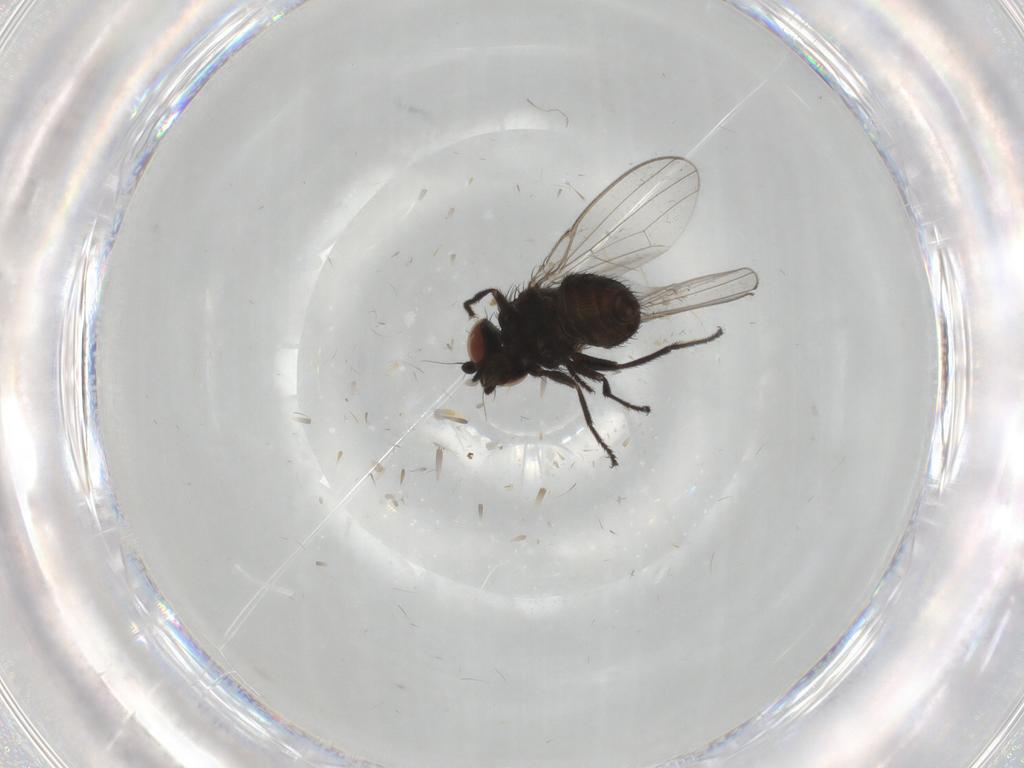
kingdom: Animalia
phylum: Arthropoda
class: Insecta
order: Diptera
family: Milichiidae
